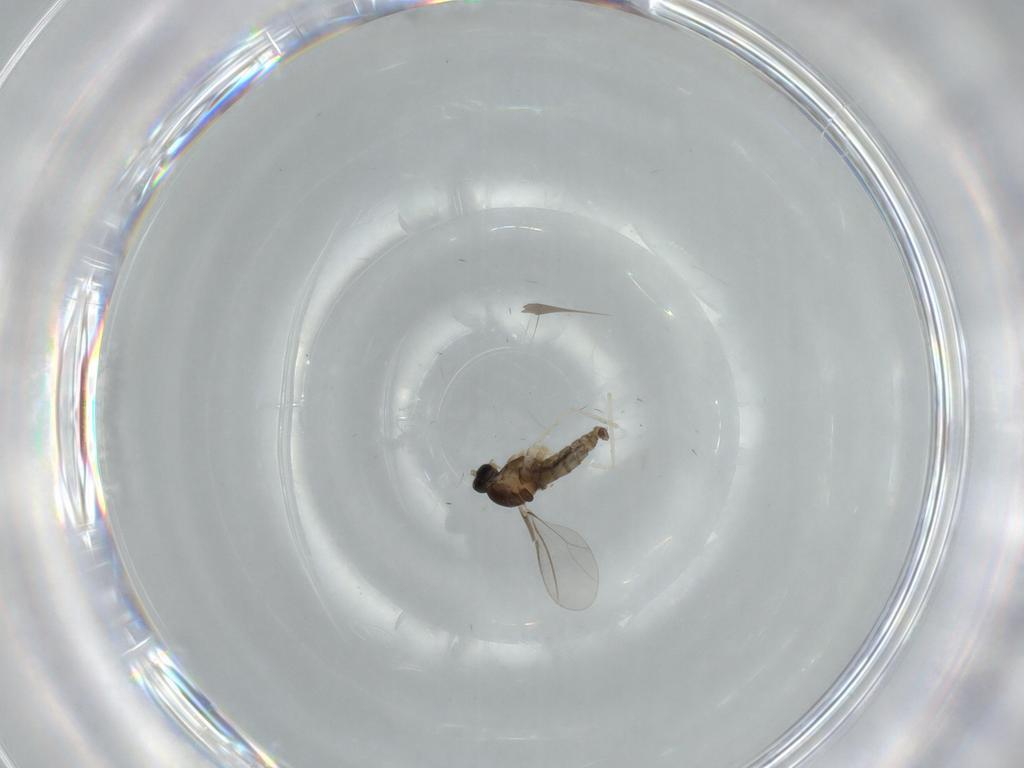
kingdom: Animalia
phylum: Arthropoda
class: Insecta
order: Diptera
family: Cecidomyiidae
